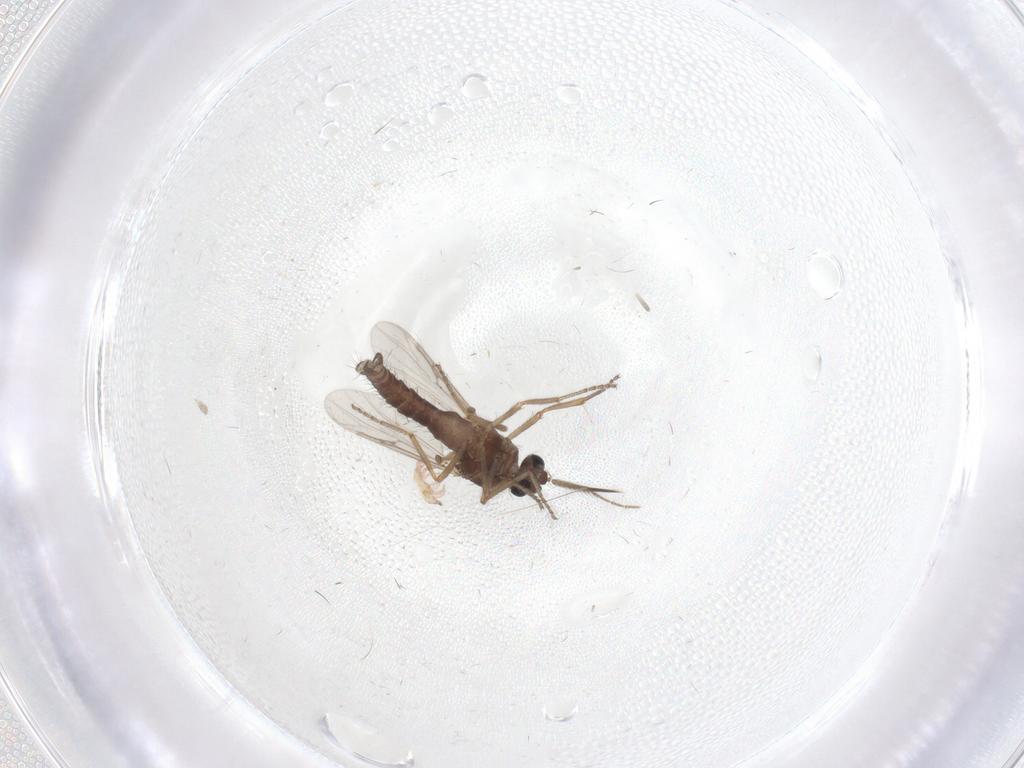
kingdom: Animalia
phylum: Arthropoda
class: Insecta
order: Diptera
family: Ceratopogonidae
